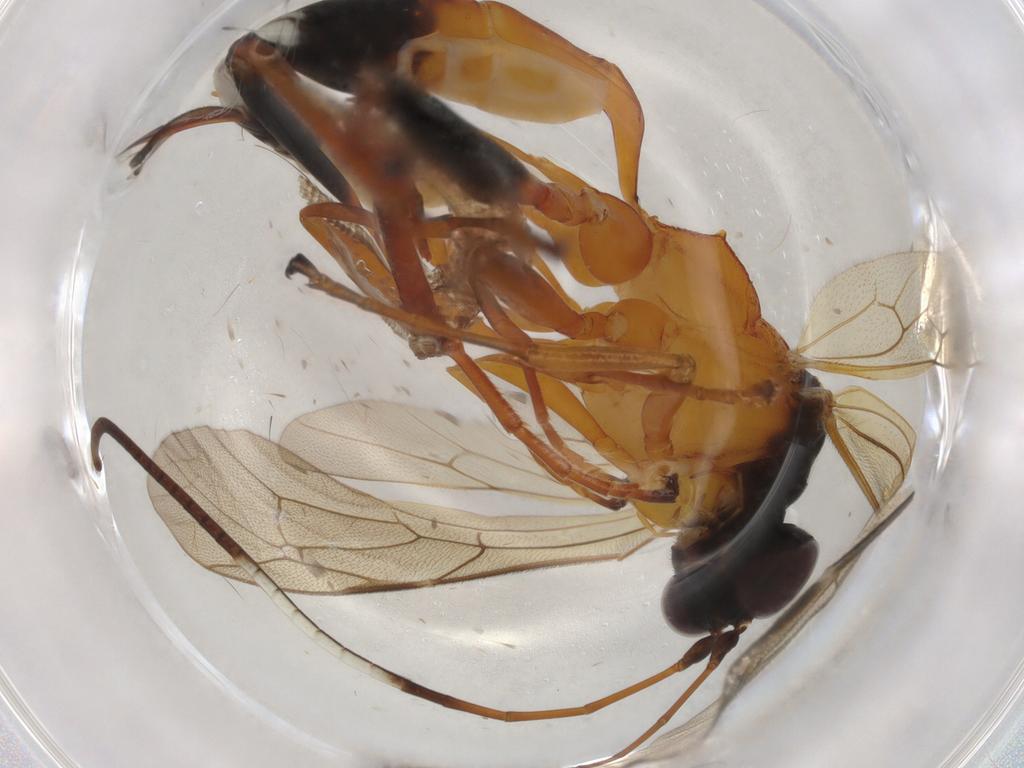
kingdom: Animalia
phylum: Arthropoda
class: Insecta
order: Hymenoptera
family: Ichneumonidae
